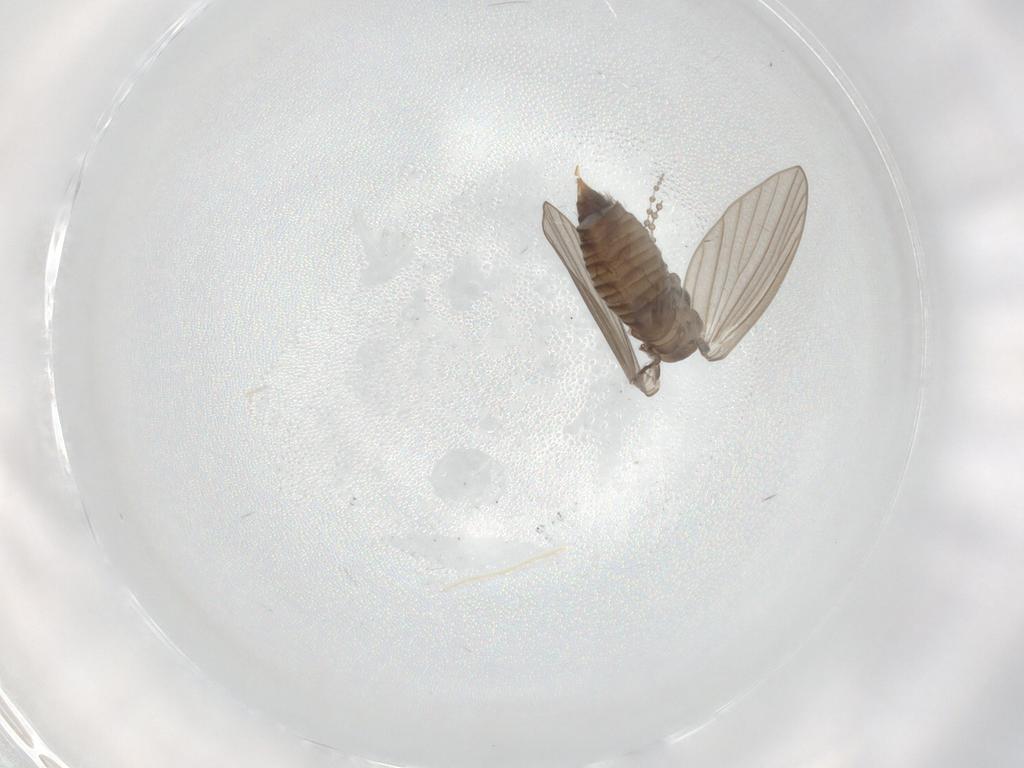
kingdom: Animalia
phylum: Arthropoda
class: Insecta
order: Diptera
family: Psychodidae
